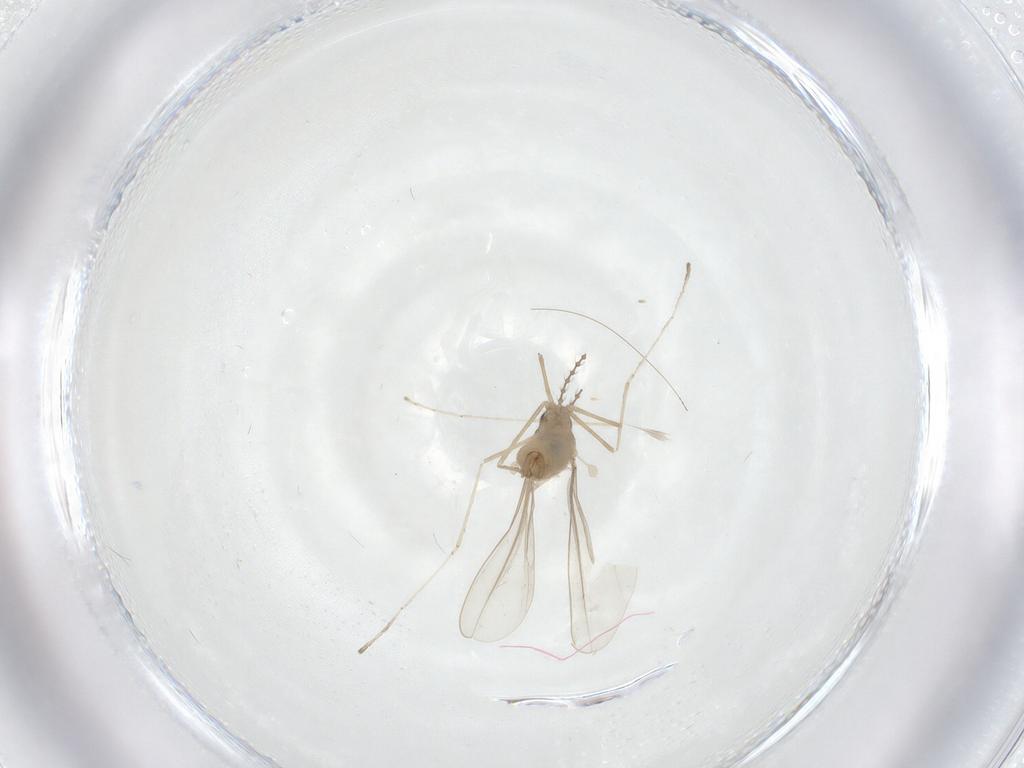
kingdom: Animalia
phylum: Arthropoda
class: Insecta
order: Diptera
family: Cecidomyiidae
